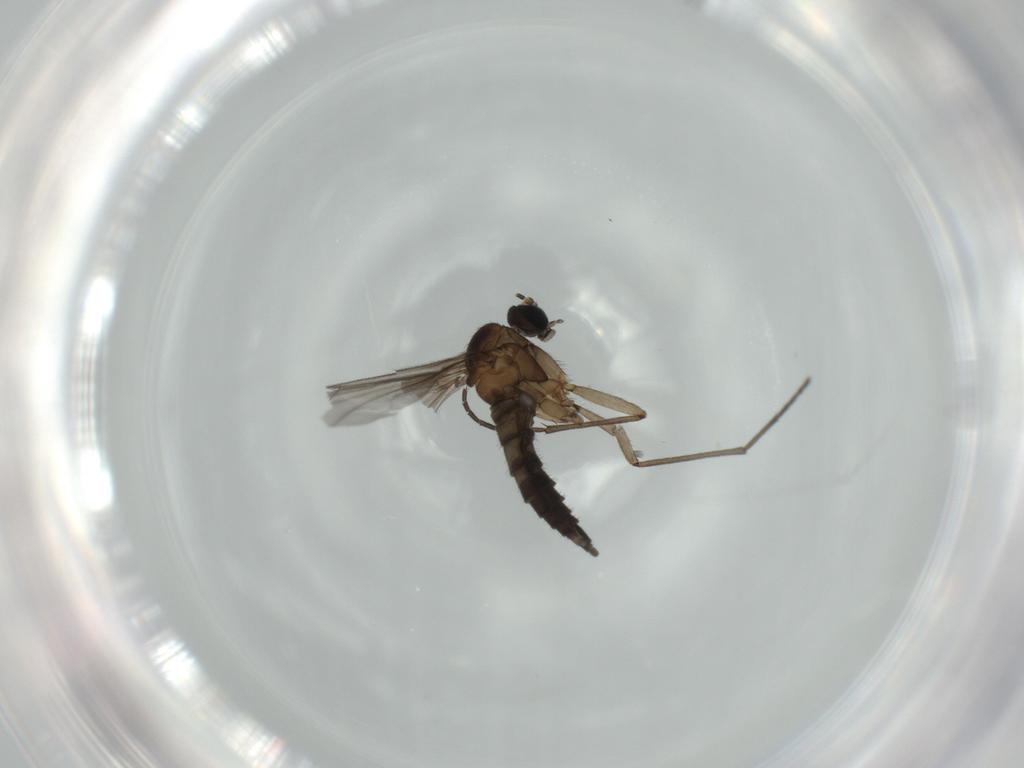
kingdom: Animalia
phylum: Arthropoda
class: Insecta
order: Diptera
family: Sciaridae
